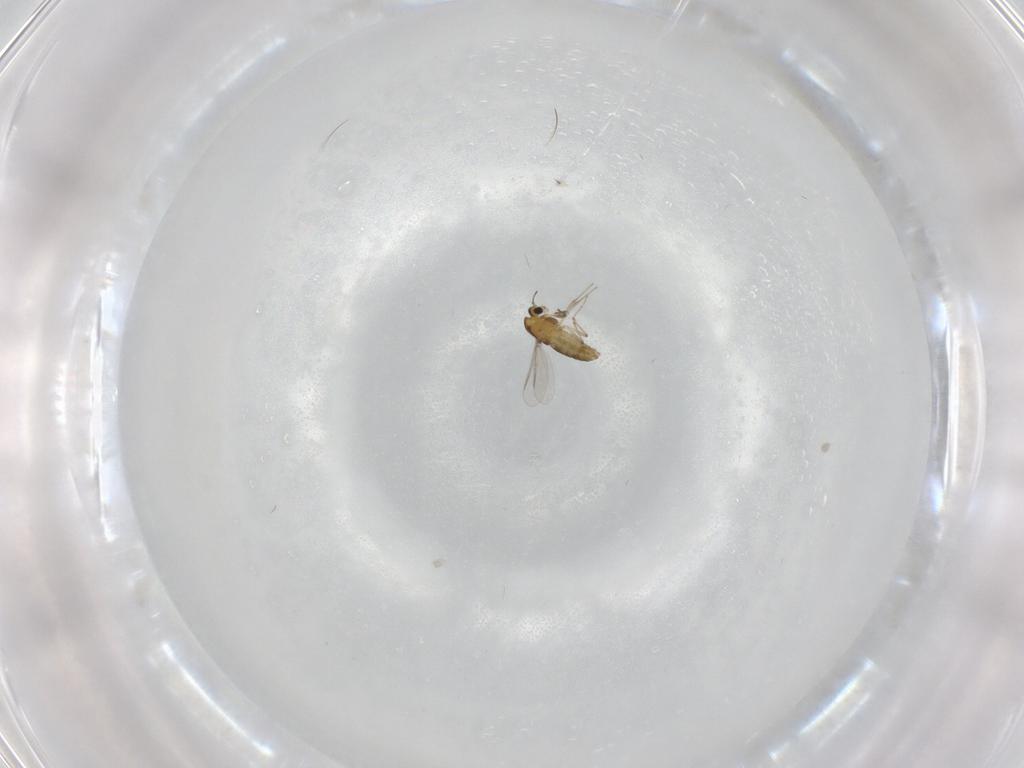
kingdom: Animalia
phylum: Arthropoda
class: Insecta
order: Diptera
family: Chironomidae
